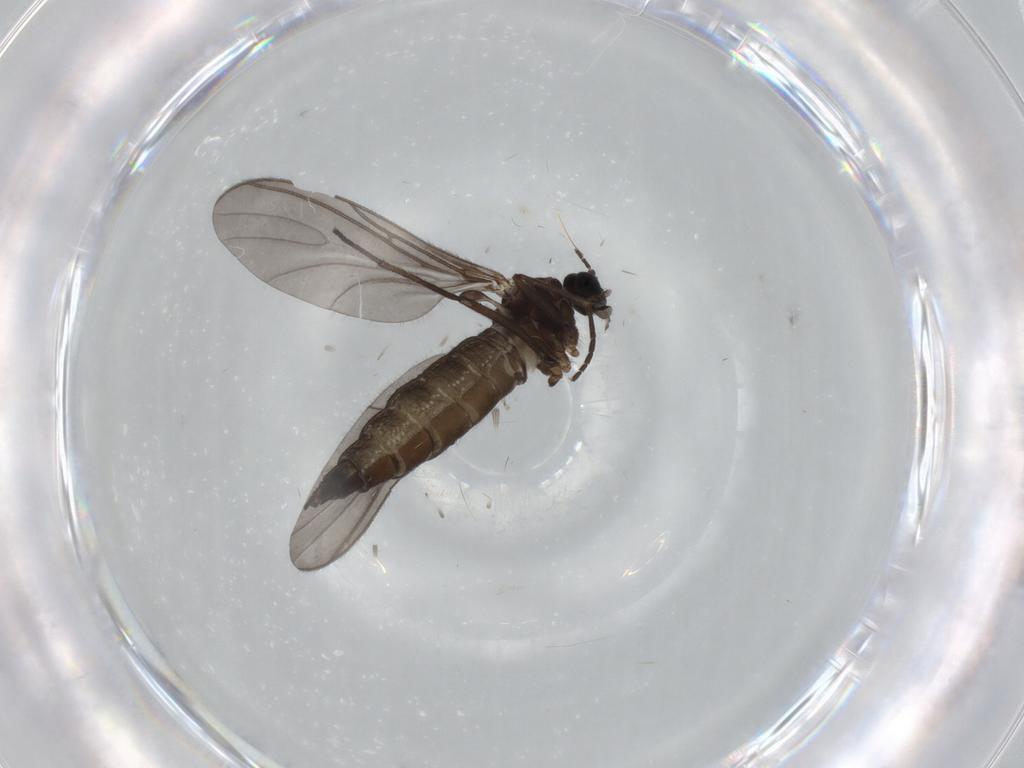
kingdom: Animalia
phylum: Arthropoda
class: Insecta
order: Diptera
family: Sciaridae
